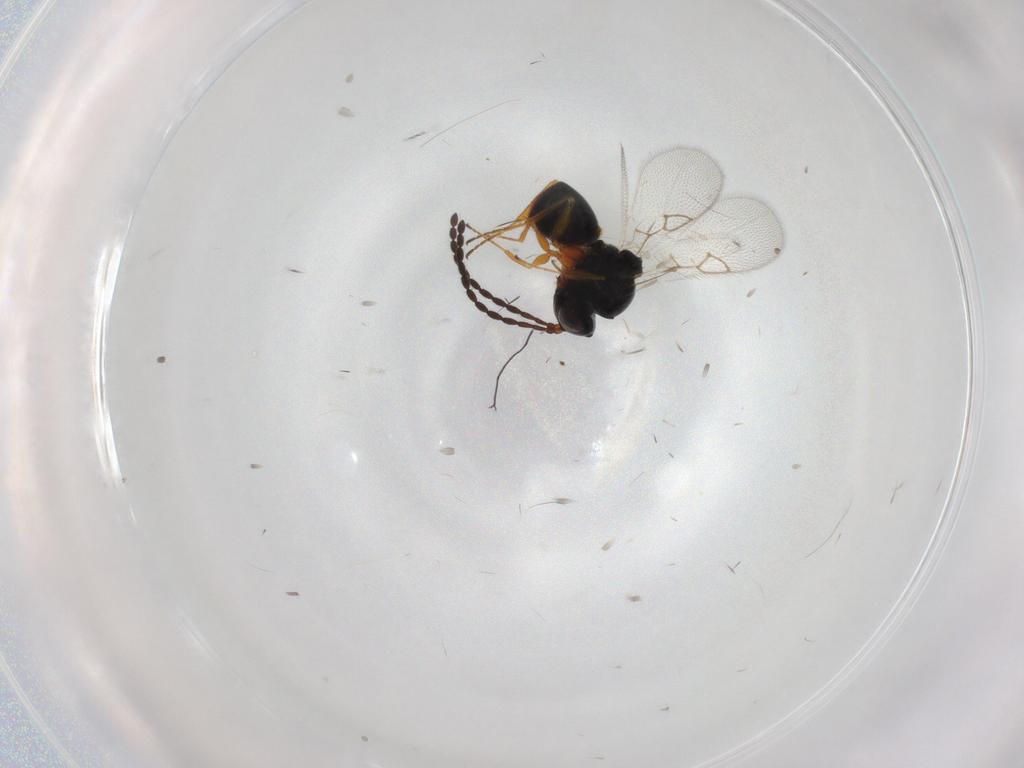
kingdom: Animalia
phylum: Arthropoda
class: Insecta
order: Hymenoptera
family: Figitidae
